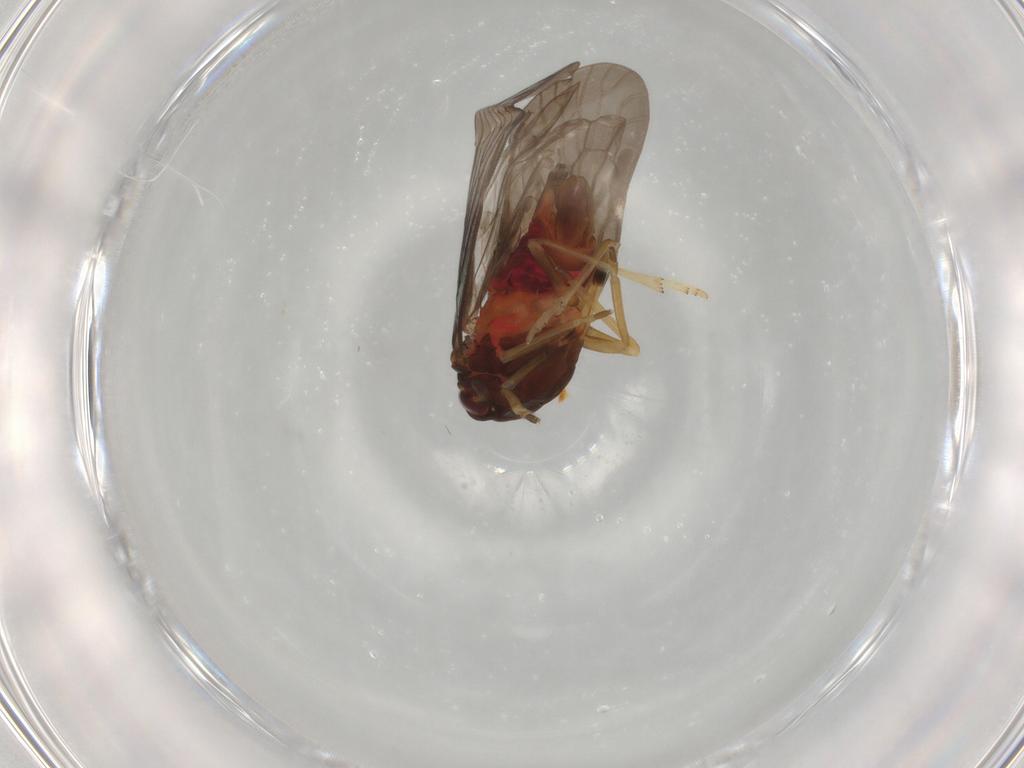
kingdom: Animalia
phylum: Arthropoda
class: Insecta
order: Hemiptera
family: Derbidae
